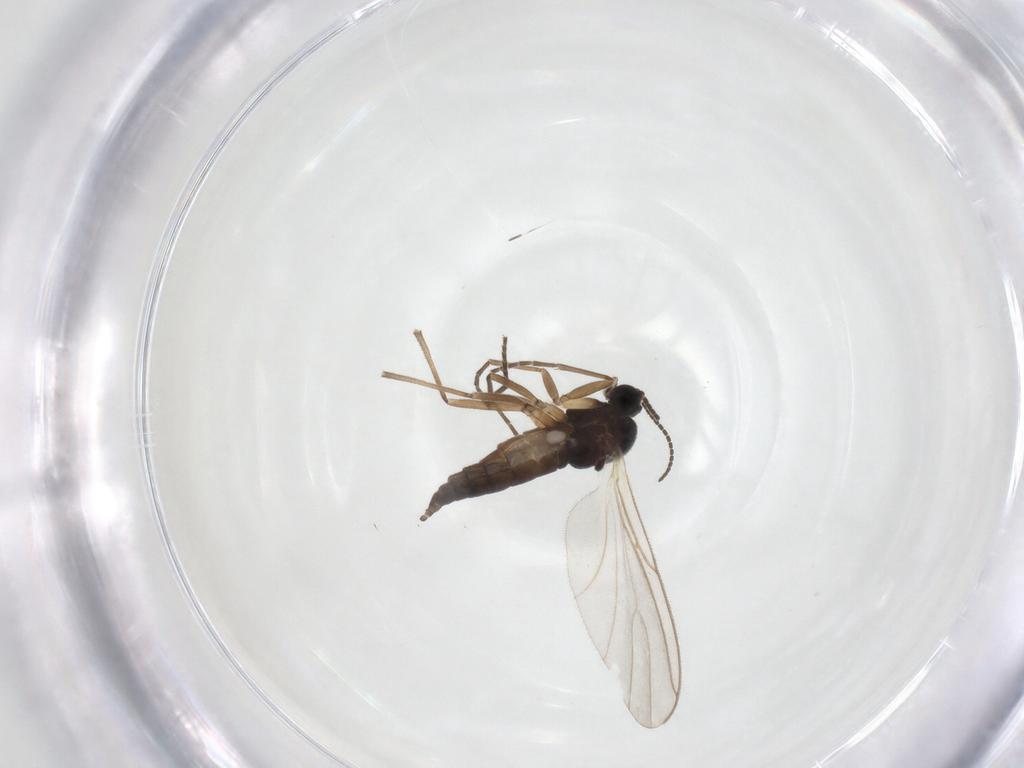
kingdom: Animalia
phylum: Arthropoda
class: Insecta
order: Diptera
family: Sciaridae
